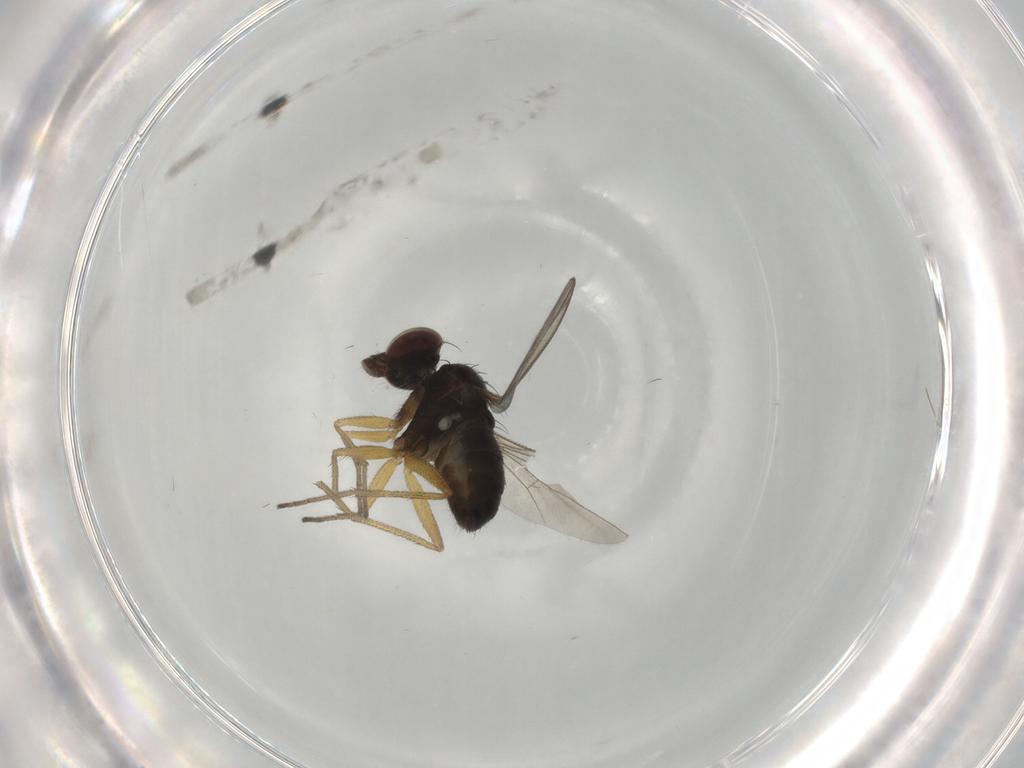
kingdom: Animalia
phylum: Arthropoda
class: Insecta
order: Diptera
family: Dolichopodidae
